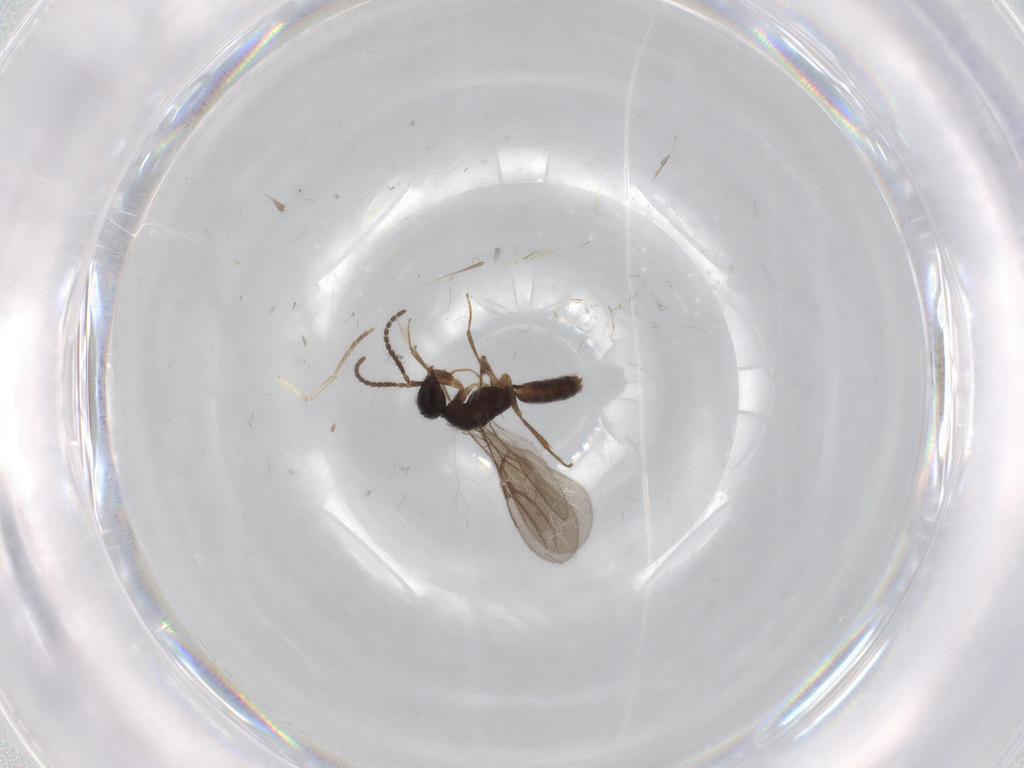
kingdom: Animalia
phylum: Arthropoda
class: Insecta
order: Hymenoptera
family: Bethylidae
